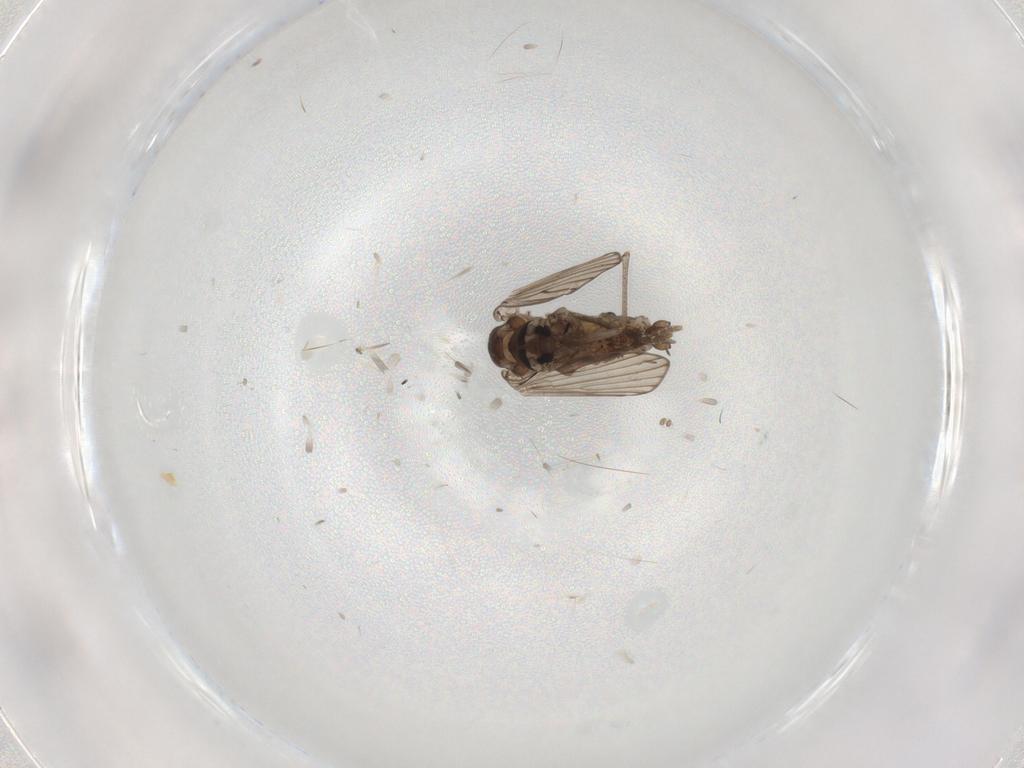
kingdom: Animalia
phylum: Arthropoda
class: Insecta
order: Diptera
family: Psychodidae
